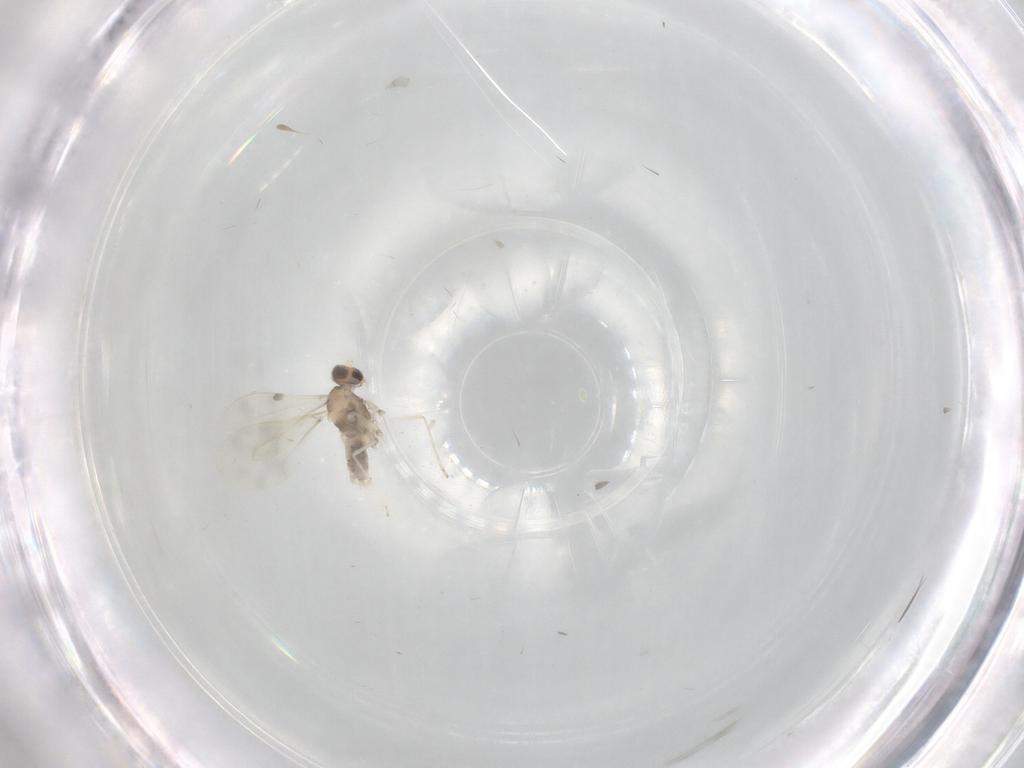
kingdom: Animalia
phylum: Arthropoda
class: Insecta
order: Diptera
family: Cecidomyiidae
